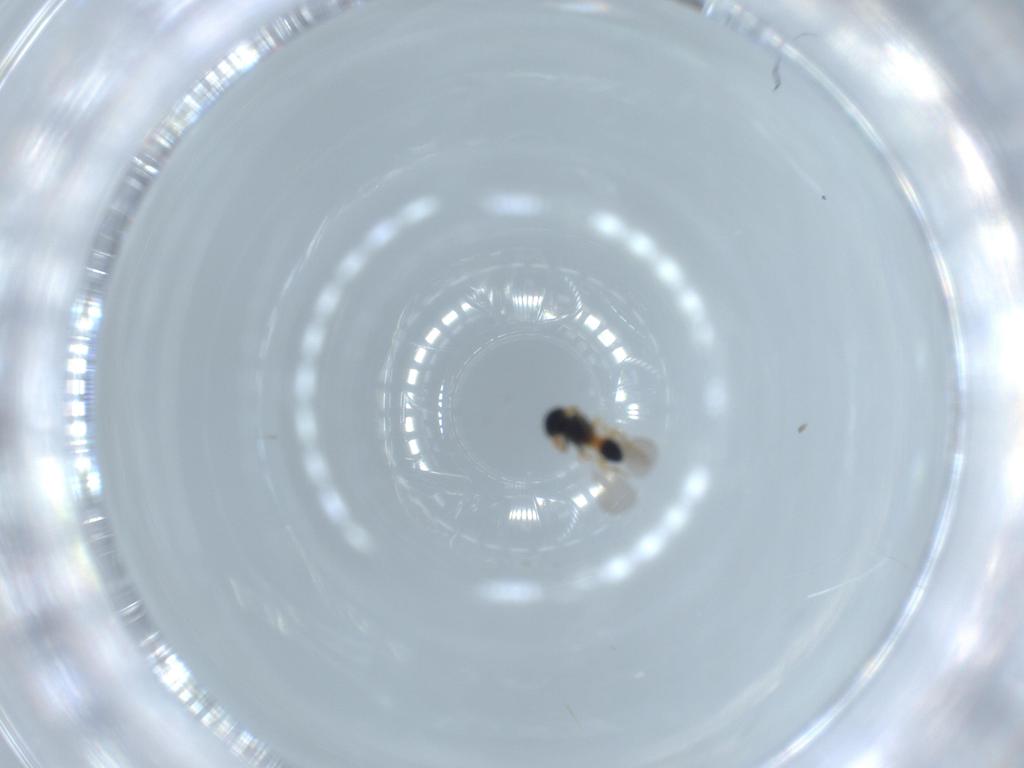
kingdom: Animalia
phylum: Arthropoda
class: Insecta
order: Hymenoptera
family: Platygastridae
